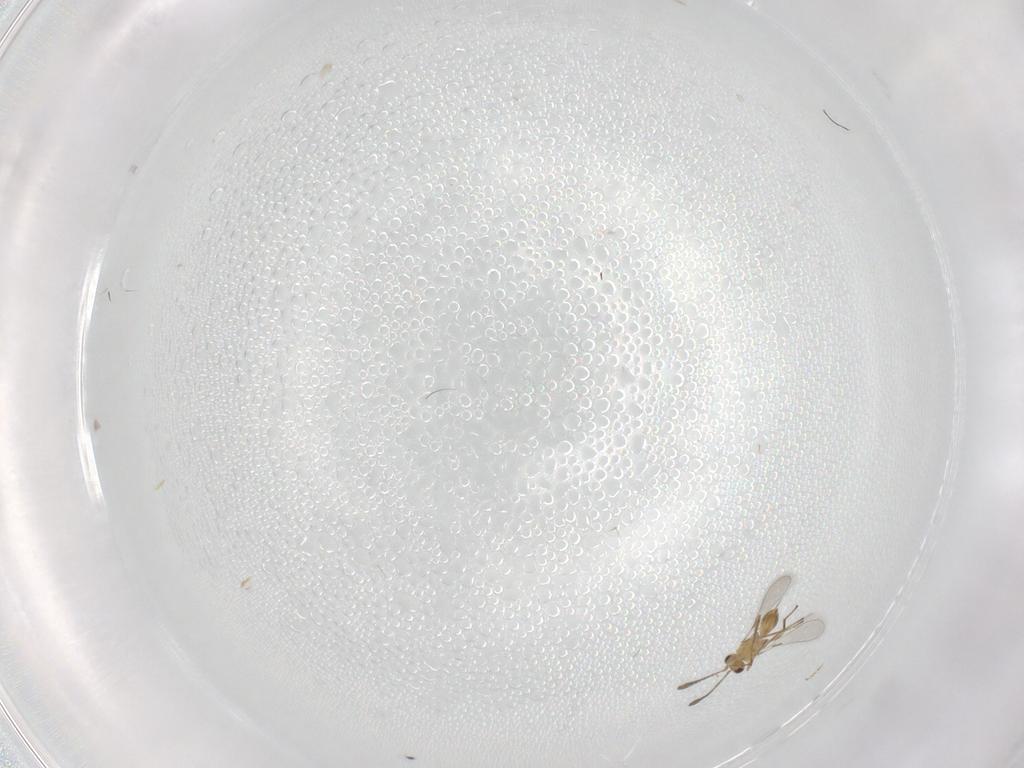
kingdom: Animalia
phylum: Arthropoda
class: Insecta
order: Hymenoptera
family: Mymaridae
